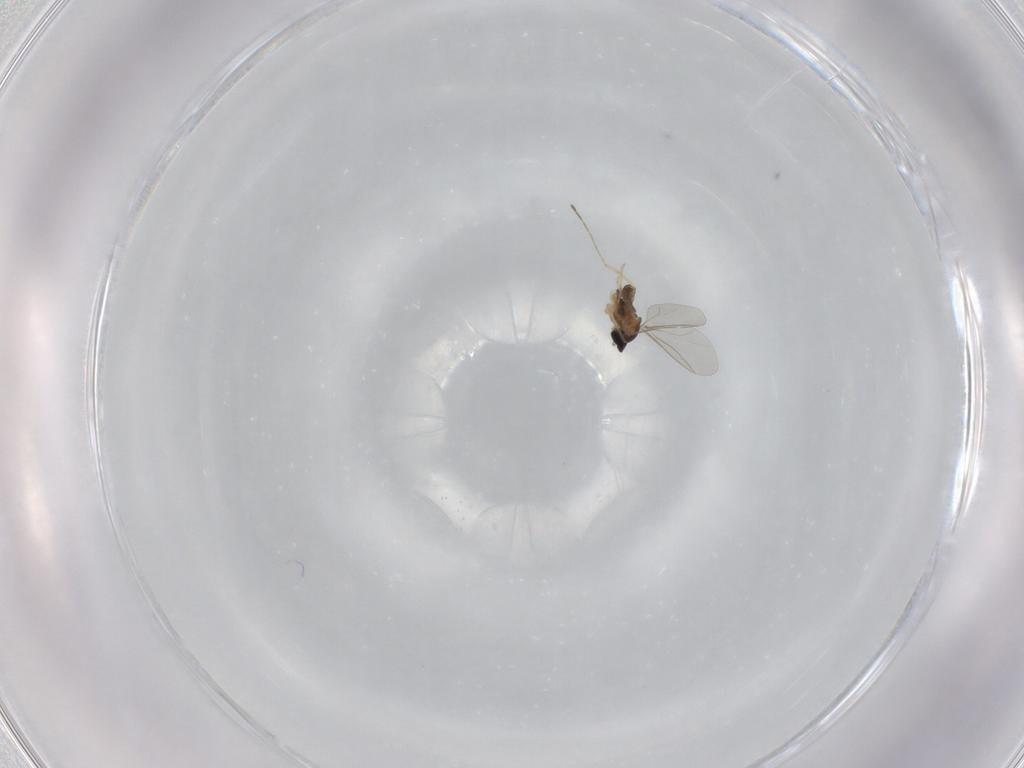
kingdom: Animalia
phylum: Arthropoda
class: Insecta
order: Diptera
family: Cecidomyiidae
